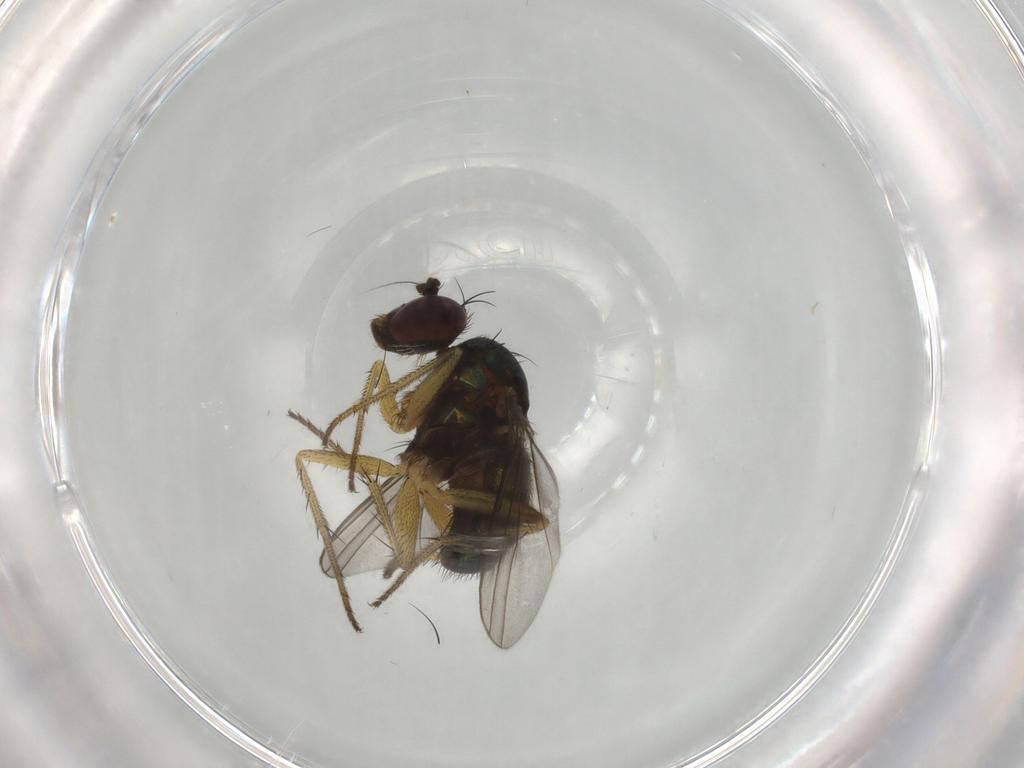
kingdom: Animalia
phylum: Arthropoda
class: Insecta
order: Diptera
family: Dolichopodidae
